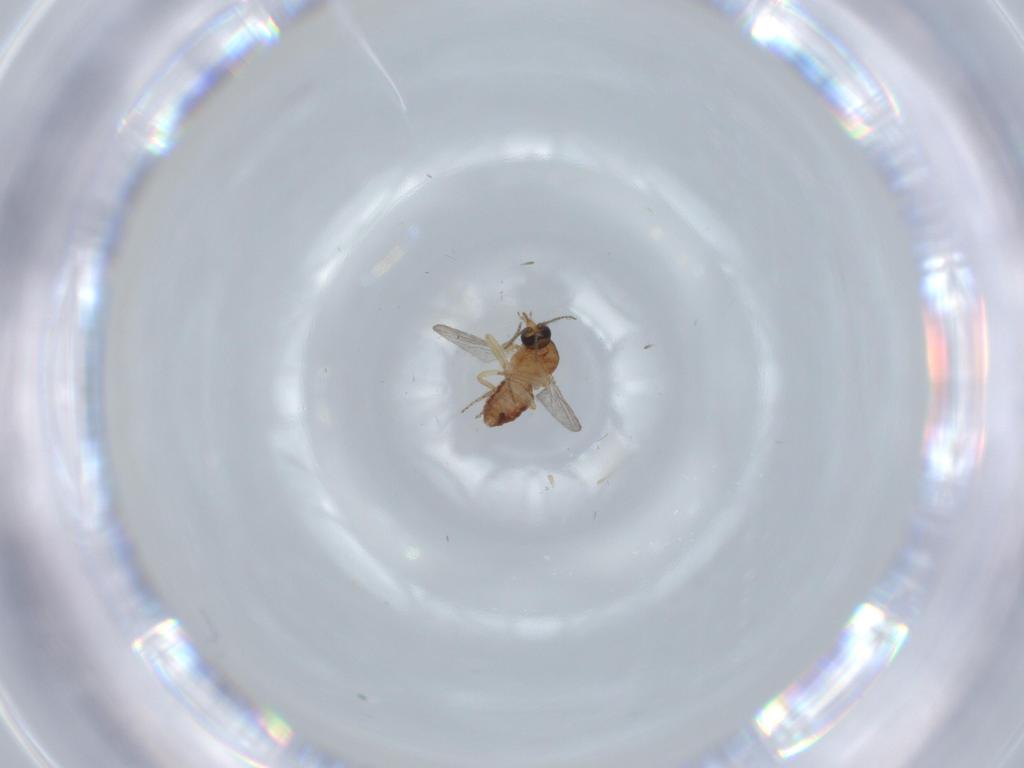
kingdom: Animalia
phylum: Arthropoda
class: Insecta
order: Diptera
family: Ceratopogonidae
